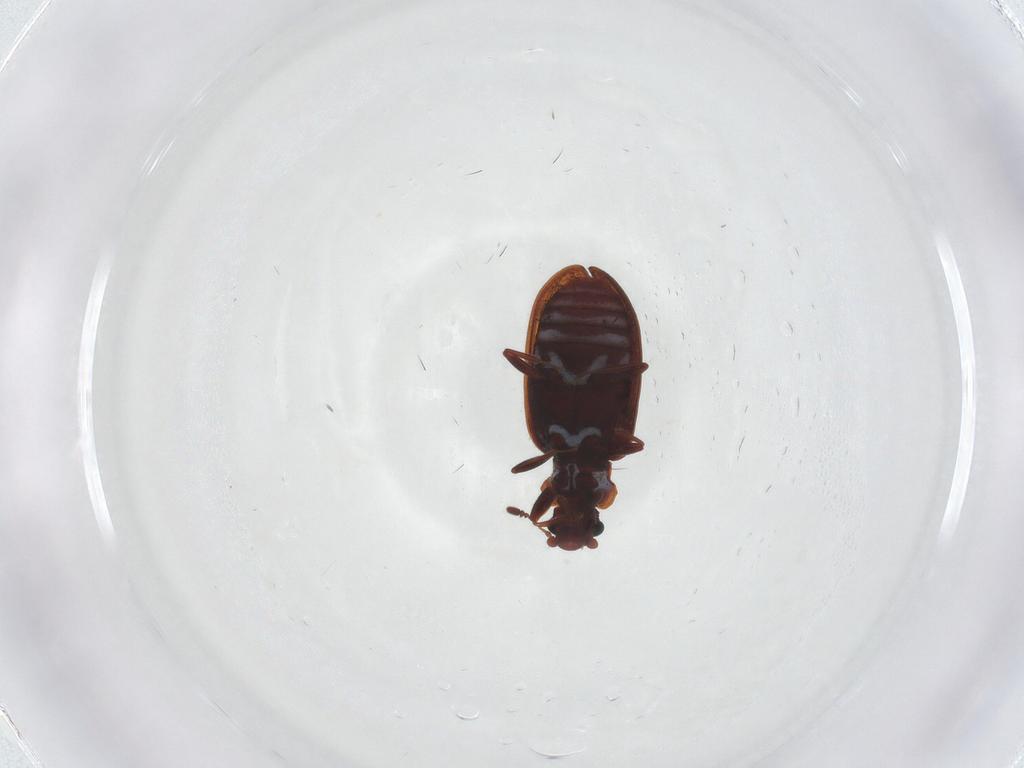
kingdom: Animalia
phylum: Arthropoda
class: Insecta
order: Coleoptera
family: Latridiidae
